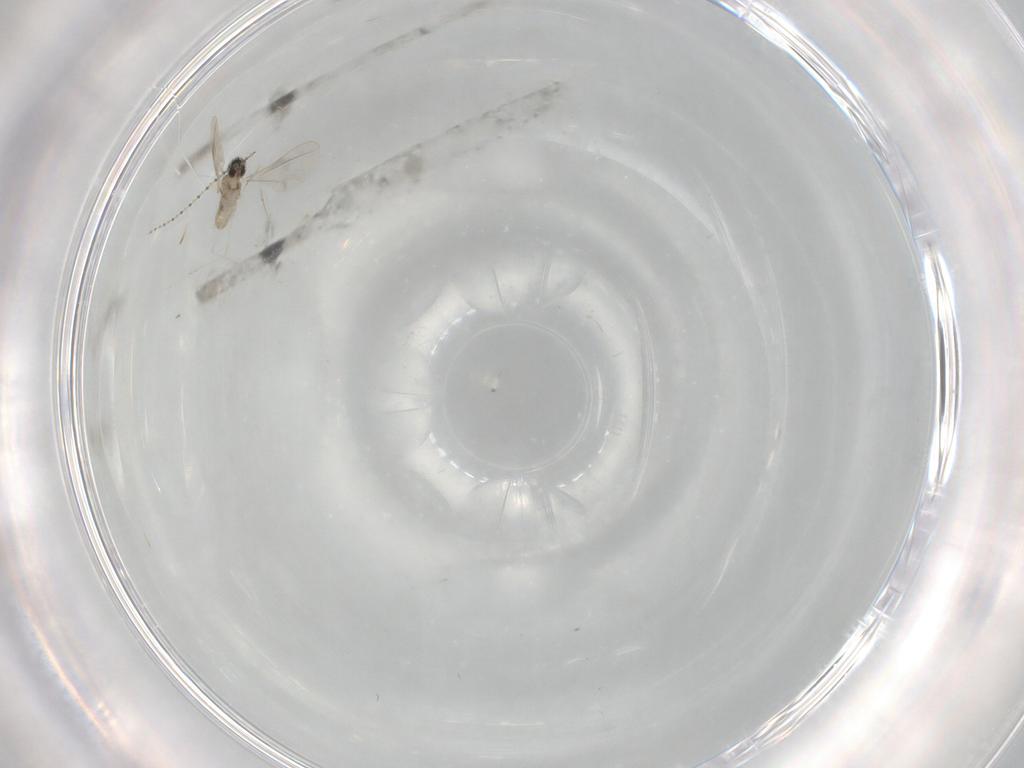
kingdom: Animalia
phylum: Arthropoda
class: Insecta
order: Diptera
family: Cecidomyiidae
